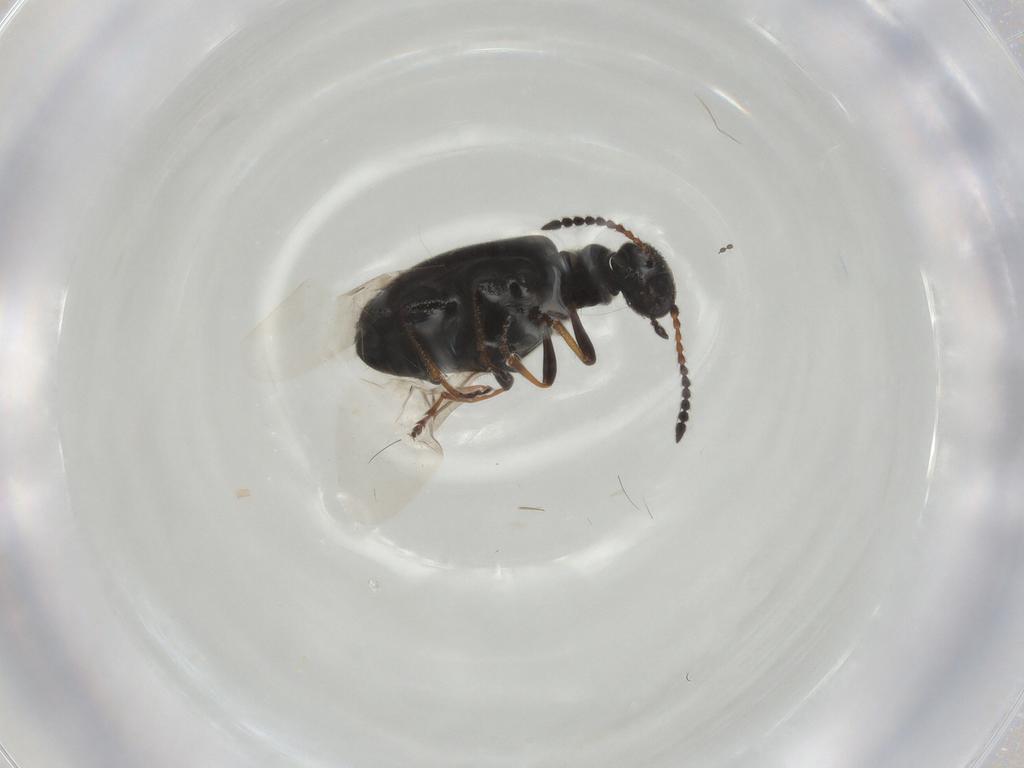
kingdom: Animalia
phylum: Arthropoda
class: Insecta
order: Coleoptera
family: Anthicidae
